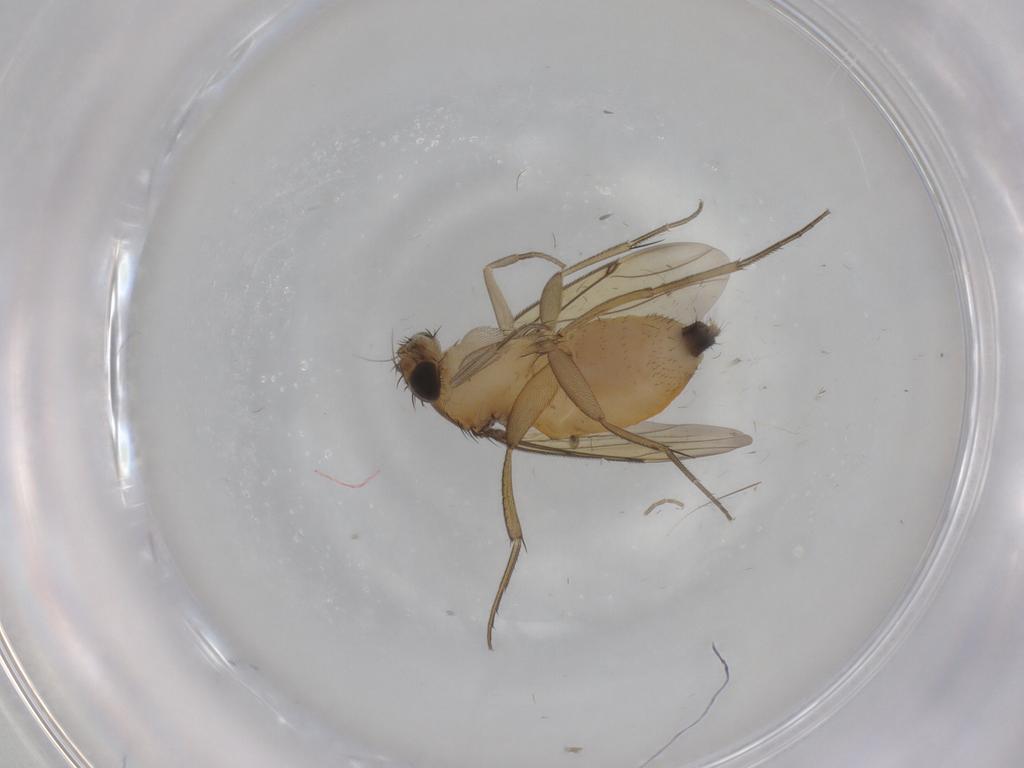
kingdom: Animalia
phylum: Arthropoda
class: Insecta
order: Diptera
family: Phoridae
